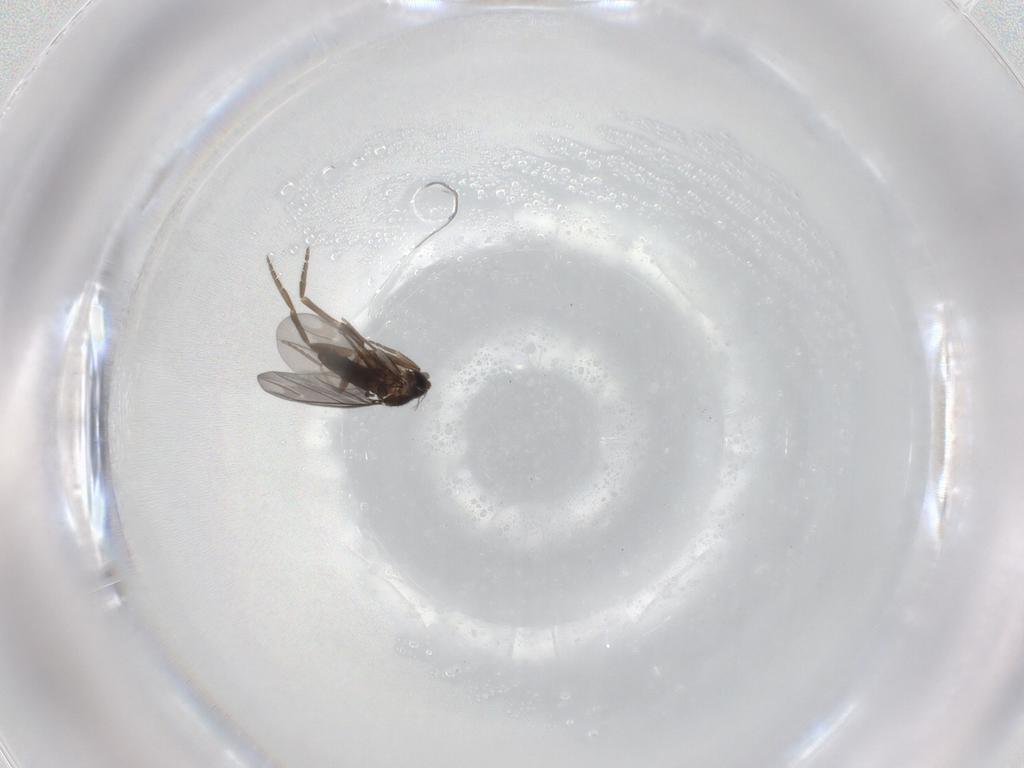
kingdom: Animalia
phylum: Arthropoda
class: Insecta
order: Diptera
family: Phoridae
